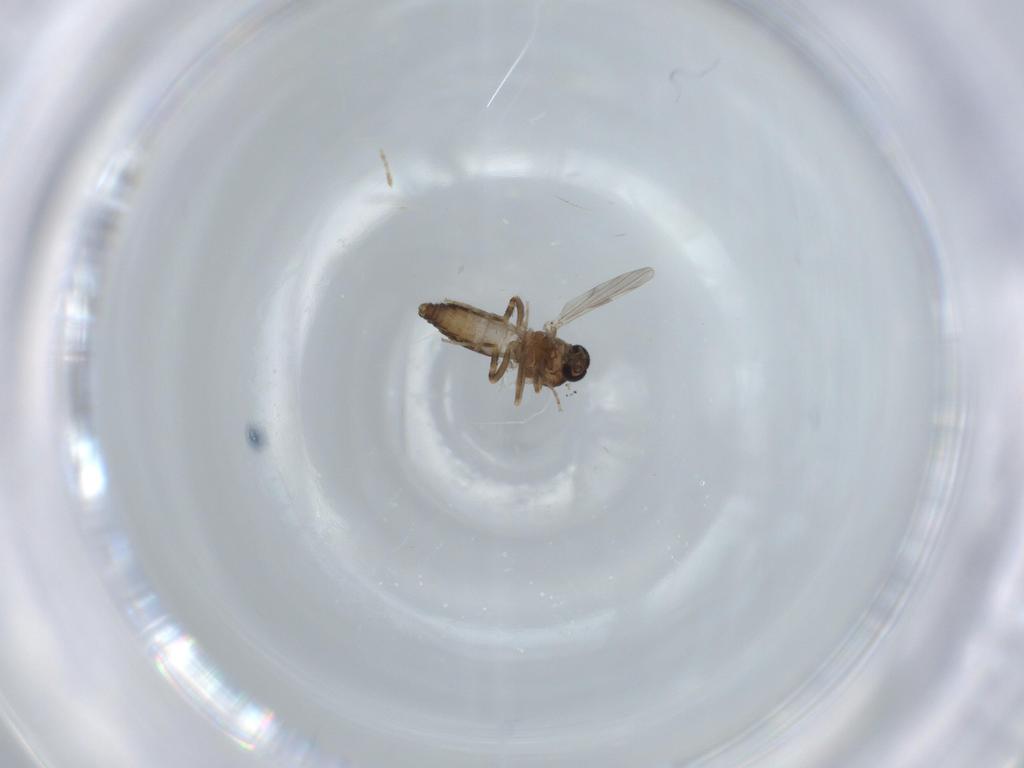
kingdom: Animalia
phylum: Arthropoda
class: Insecta
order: Diptera
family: Ceratopogonidae
